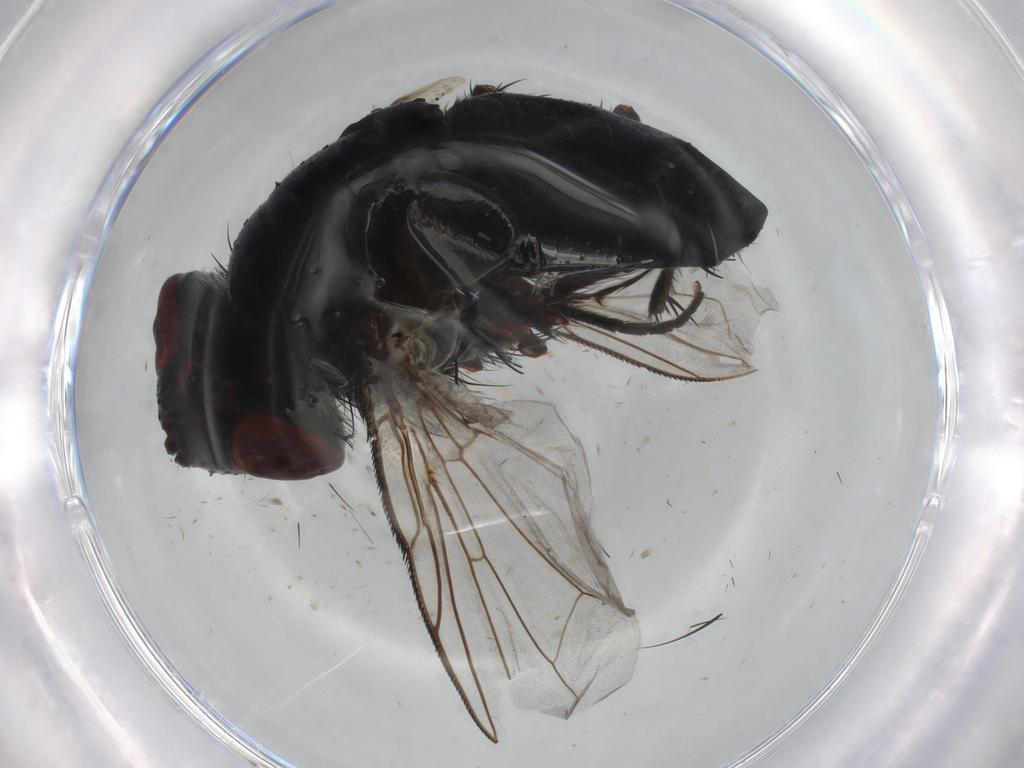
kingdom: Animalia
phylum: Arthropoda
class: Insecta
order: Diptera
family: Tachinidae
